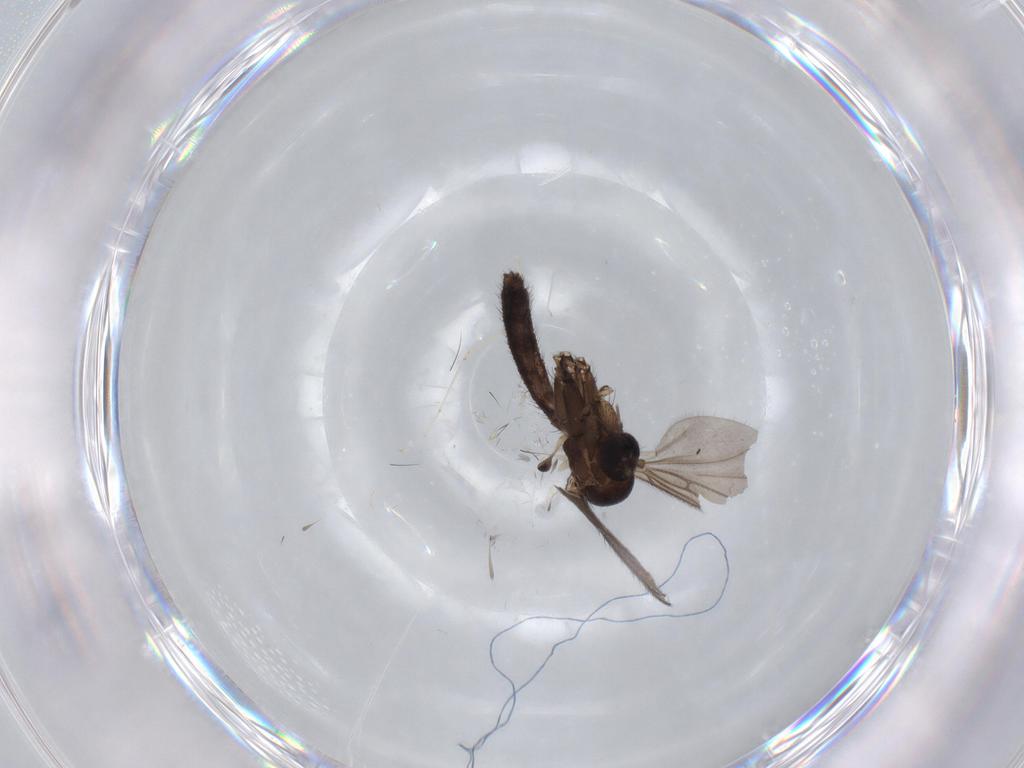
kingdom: Animalia
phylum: Arthropoda
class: Insecta
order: Diptera
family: Cecidomyiidae
